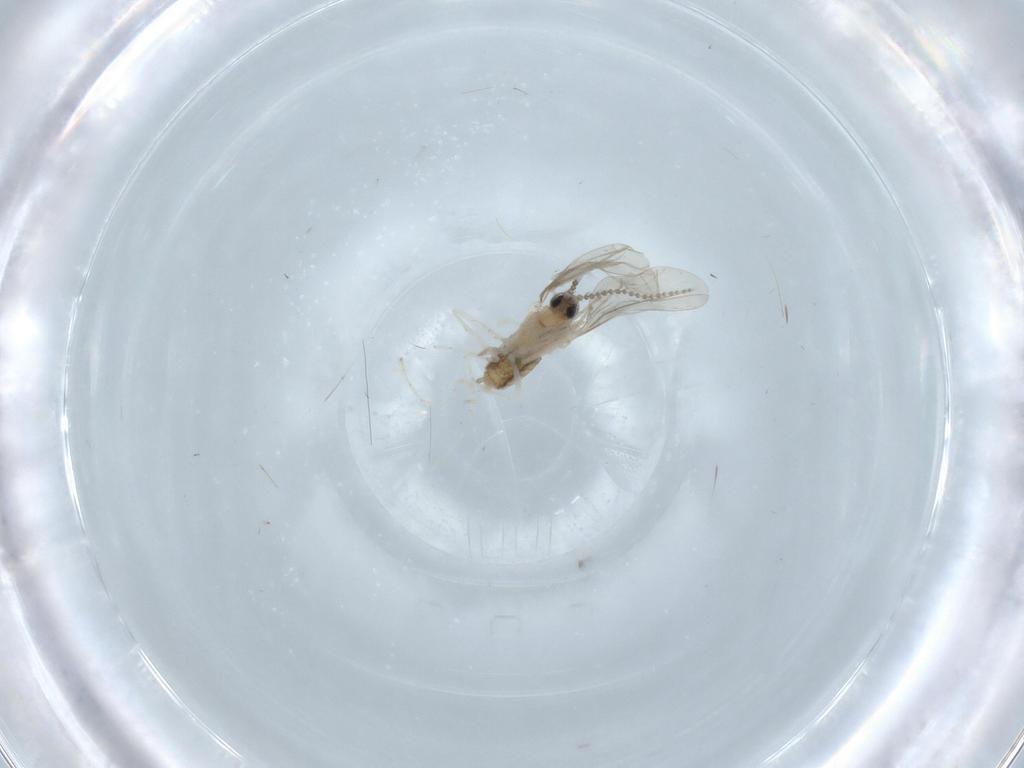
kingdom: Animalia
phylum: Arthropoda
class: Insecta
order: Diptera
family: Cecidomyiidae
